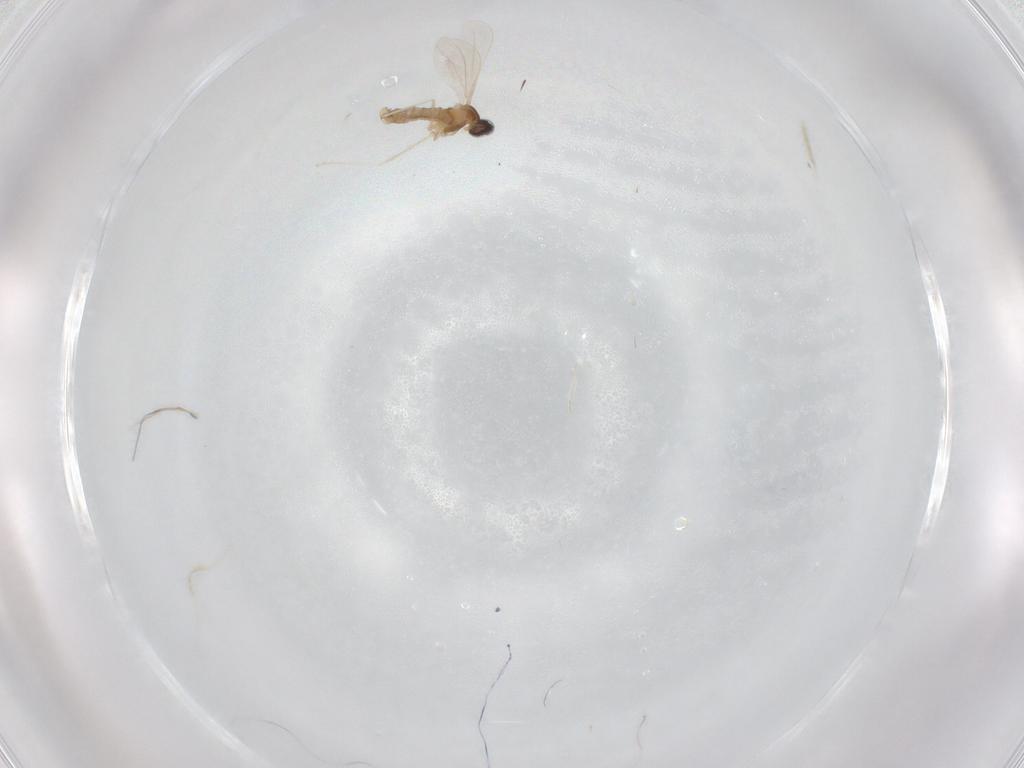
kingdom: Animalia
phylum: Arthropoda
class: Insecta
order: Diptera
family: Cecidomyiidae
